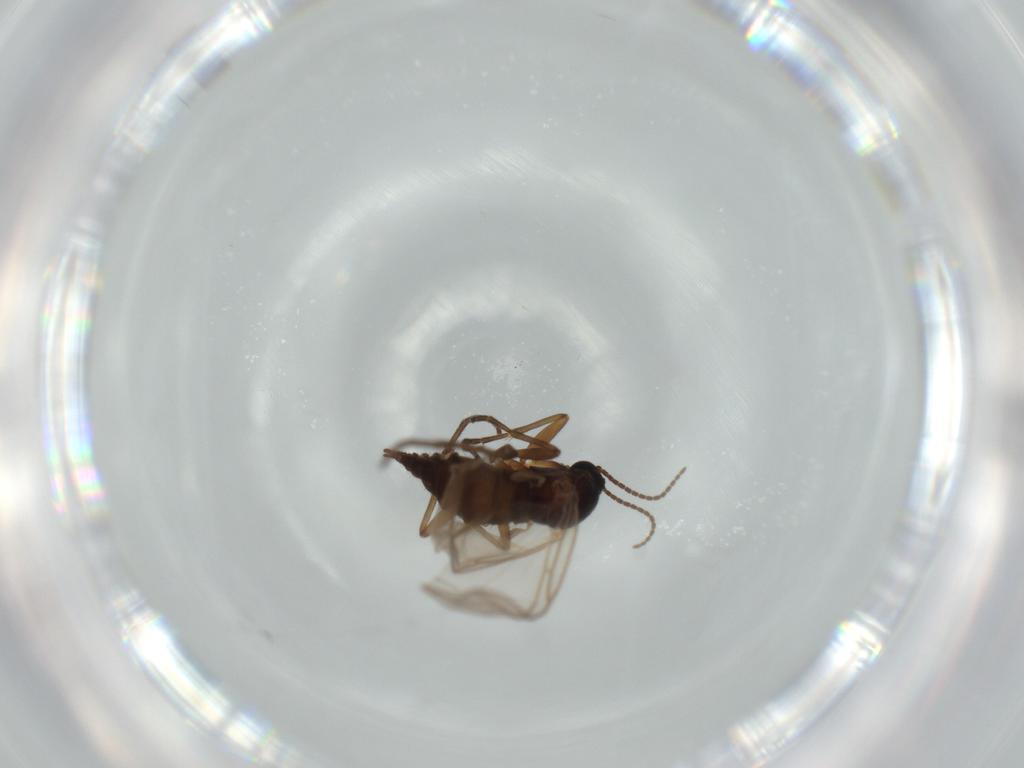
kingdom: Animalia
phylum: Arthropoda
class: Insecta
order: Diptera
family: Sciaridae
